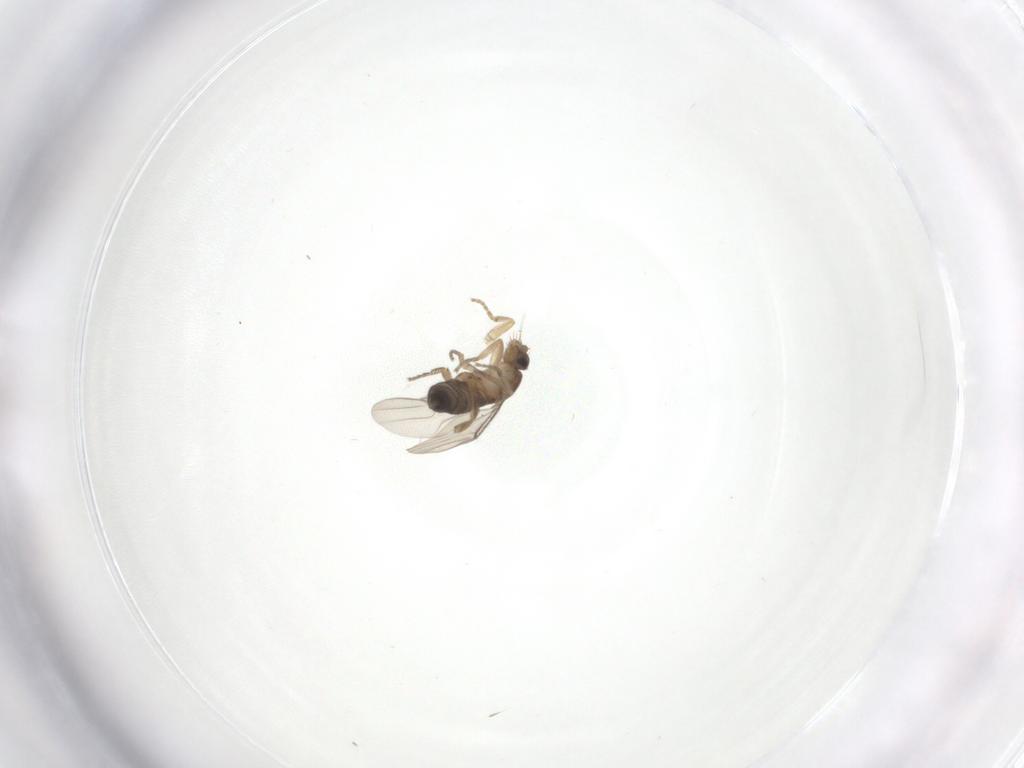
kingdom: Animalia
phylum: Arthropoda
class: Insecta
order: Diptera
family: Phoridae
